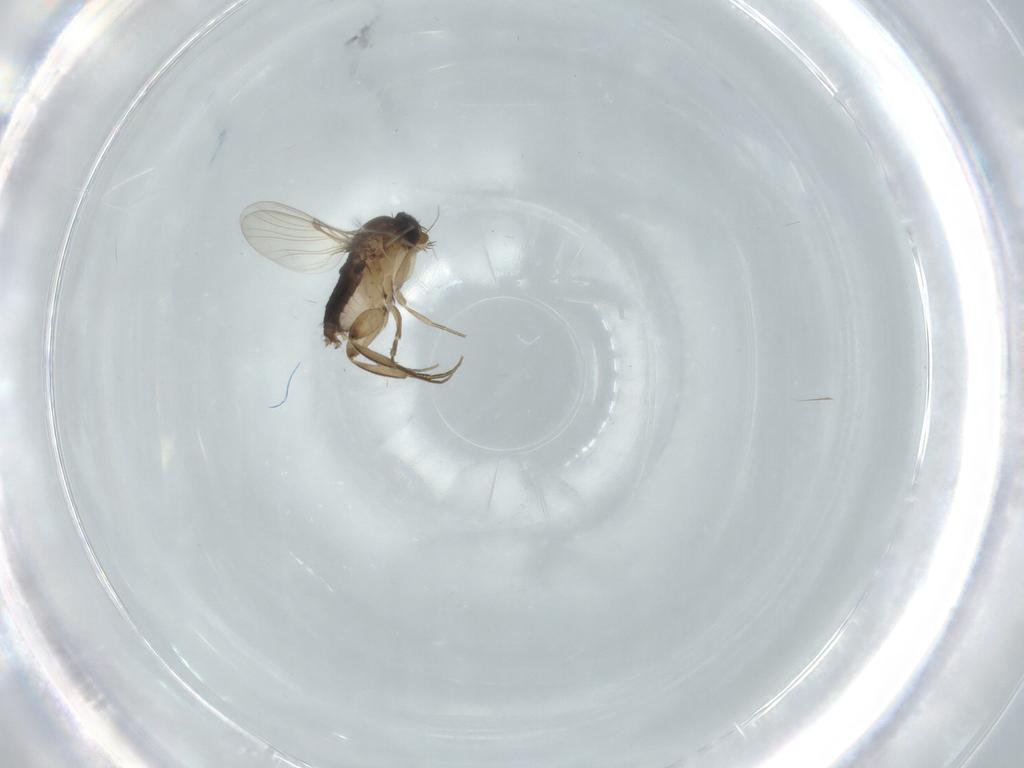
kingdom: Animalia
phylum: Arthropoda
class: Insecta
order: Diptera
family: Phoridae
